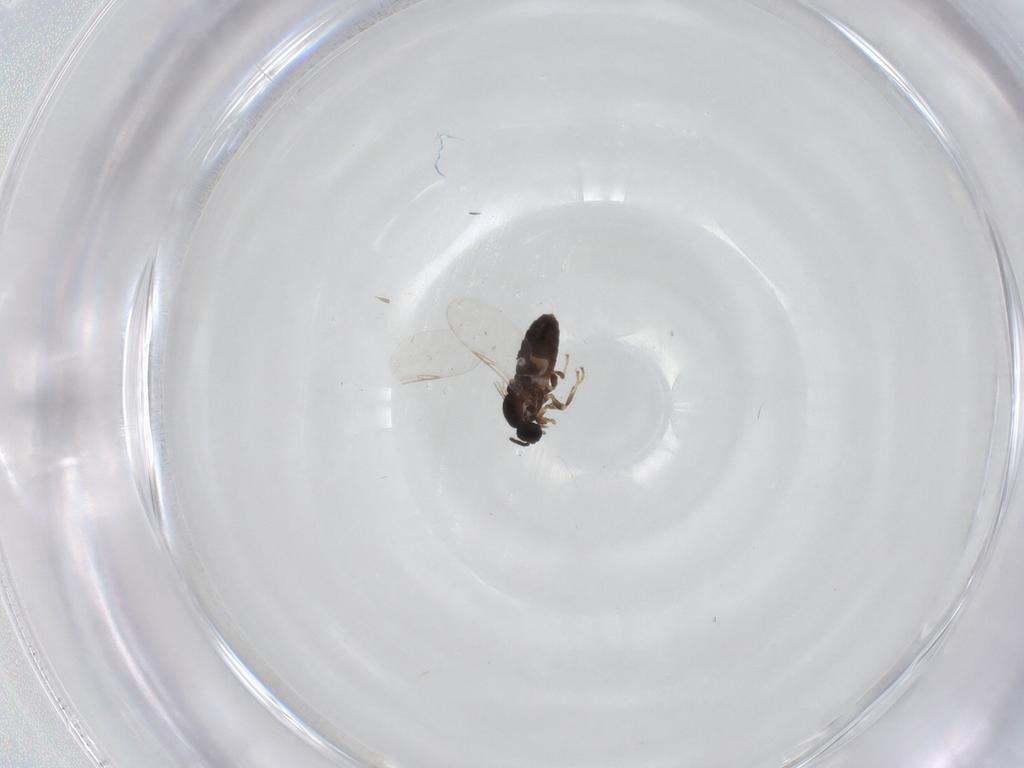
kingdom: Animalia
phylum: Arthropoda
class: Insecta
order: Diptera
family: Scatopsidae
